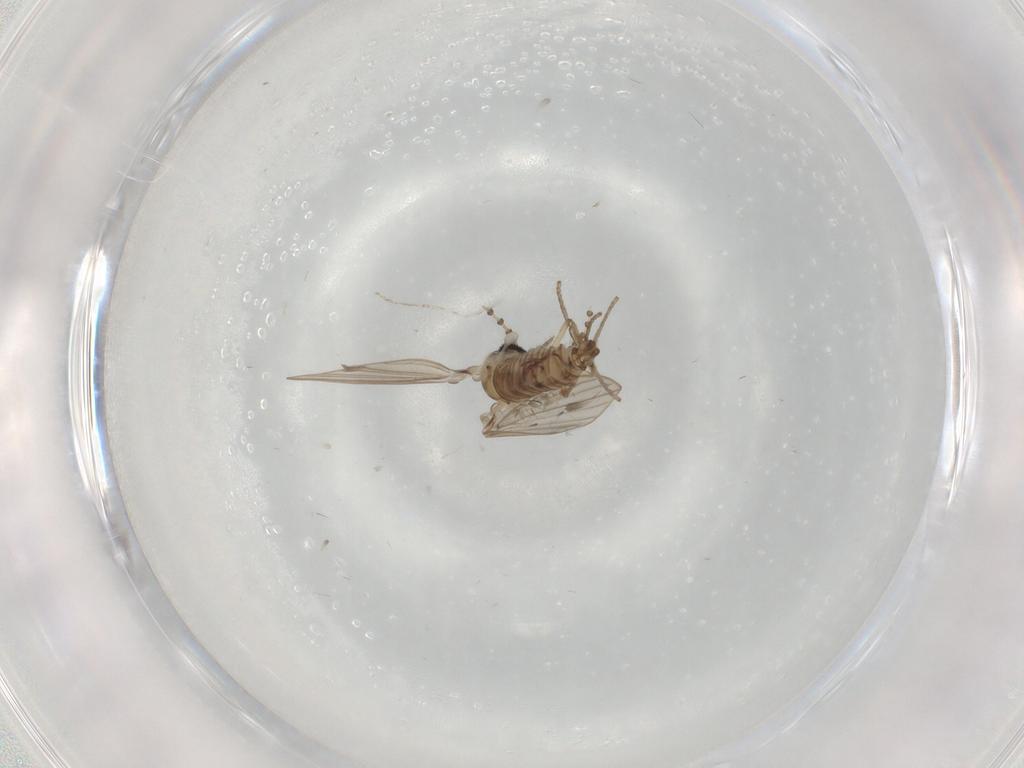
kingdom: Animalia
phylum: Arthropoda
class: Insecta
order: Diptera
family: Psychodidae
